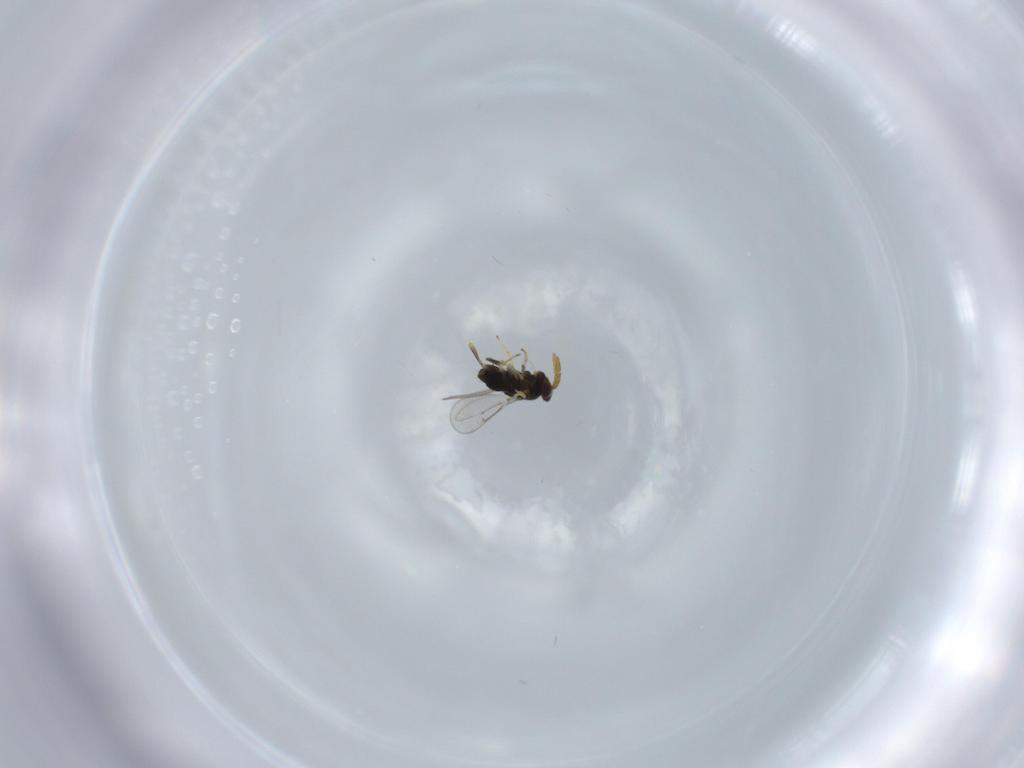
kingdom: Animalia
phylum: Arthropoda
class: Insecta
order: Hymenoptera
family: Eupelmidae
